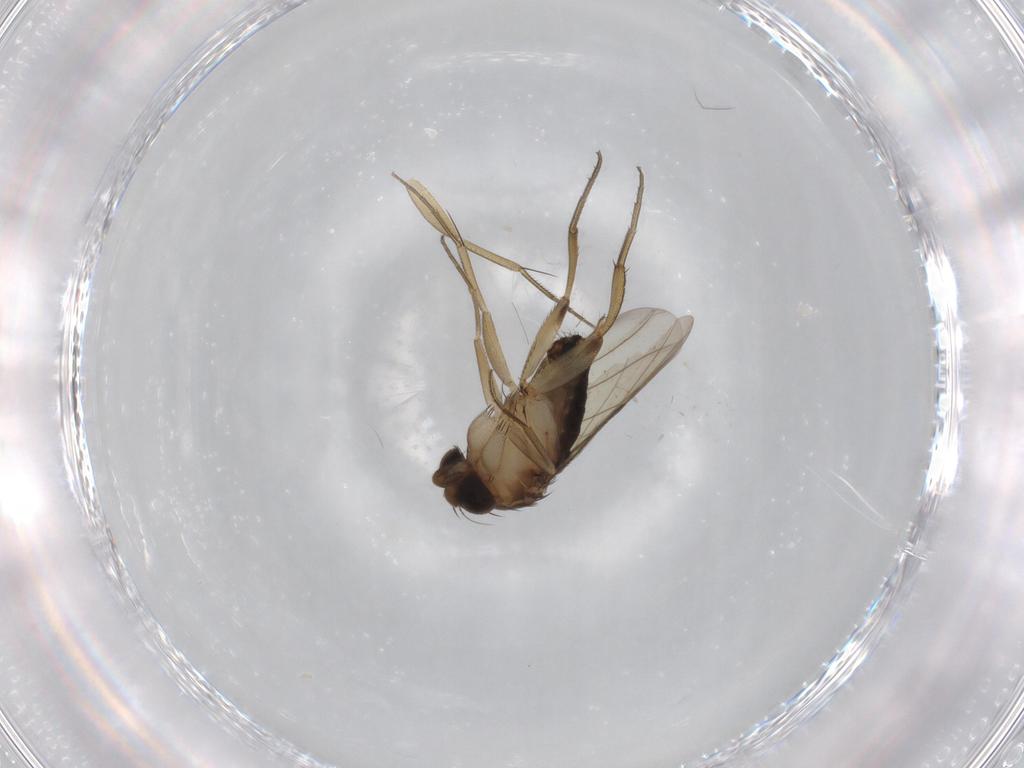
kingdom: Animalia
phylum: Arthropoda
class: Insecta
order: Diptera
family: Phoridae
